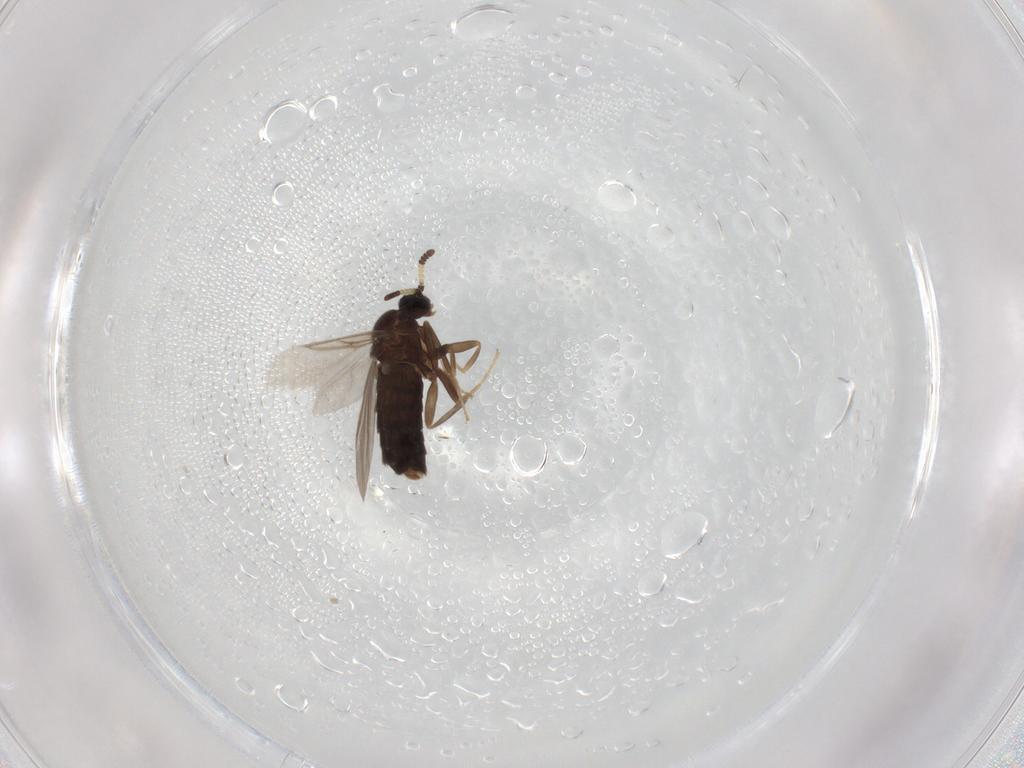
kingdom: Animalia
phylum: Arthropoda
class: Insecta
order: Diptera
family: Scatopsidae
